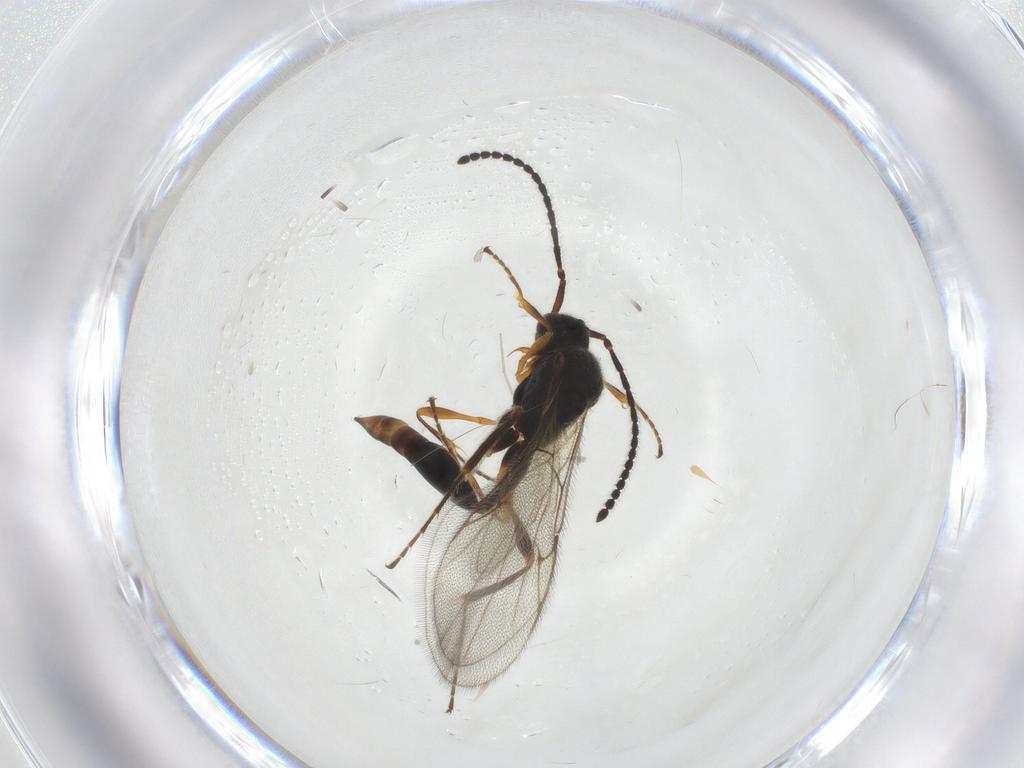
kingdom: Animalia
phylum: Arthropoda
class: Insecta
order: Hymenoptera
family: Diapriidae
